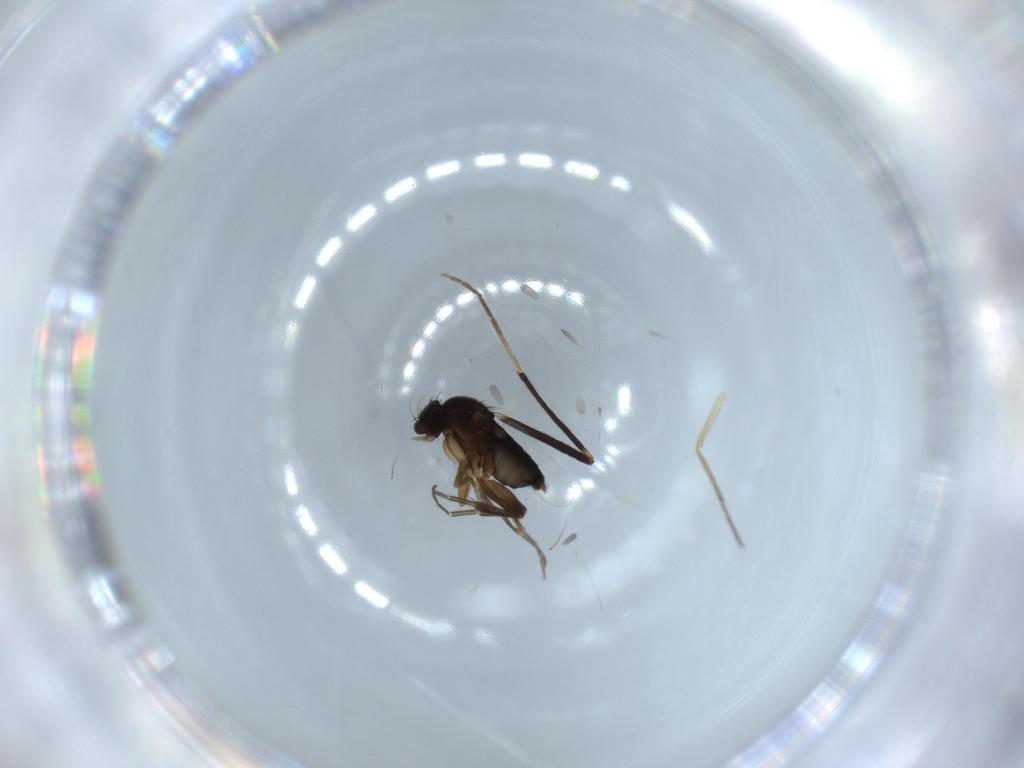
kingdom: Animalia
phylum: Arthropoda
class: Insecta
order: Diptera
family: Phoridae
